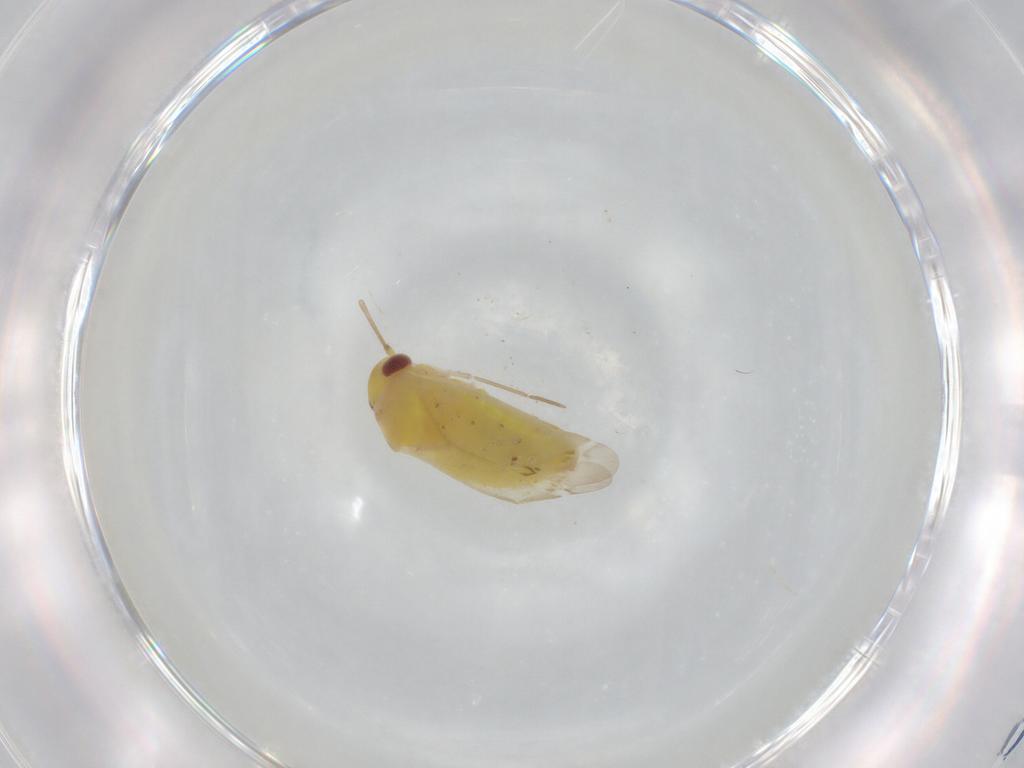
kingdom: Animalia
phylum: Arthropoda
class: Insecta
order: Hemiptera
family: Miridae
